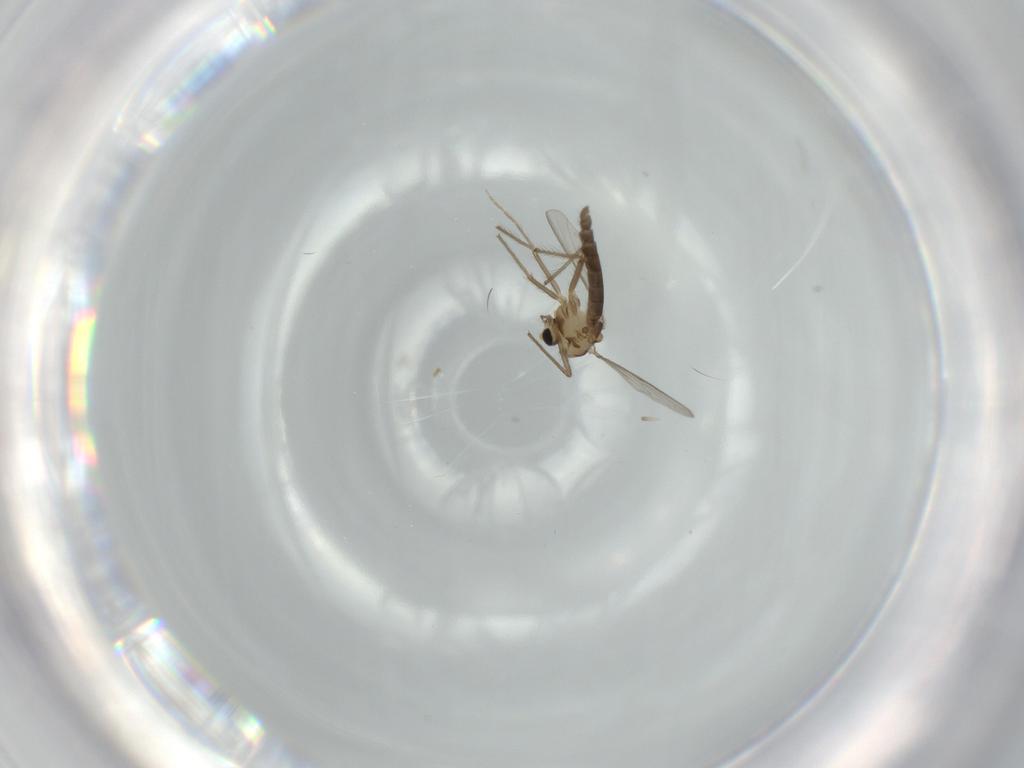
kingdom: Animalia
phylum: Arthropoda
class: Insecta
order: Diptera
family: Chironomidae
